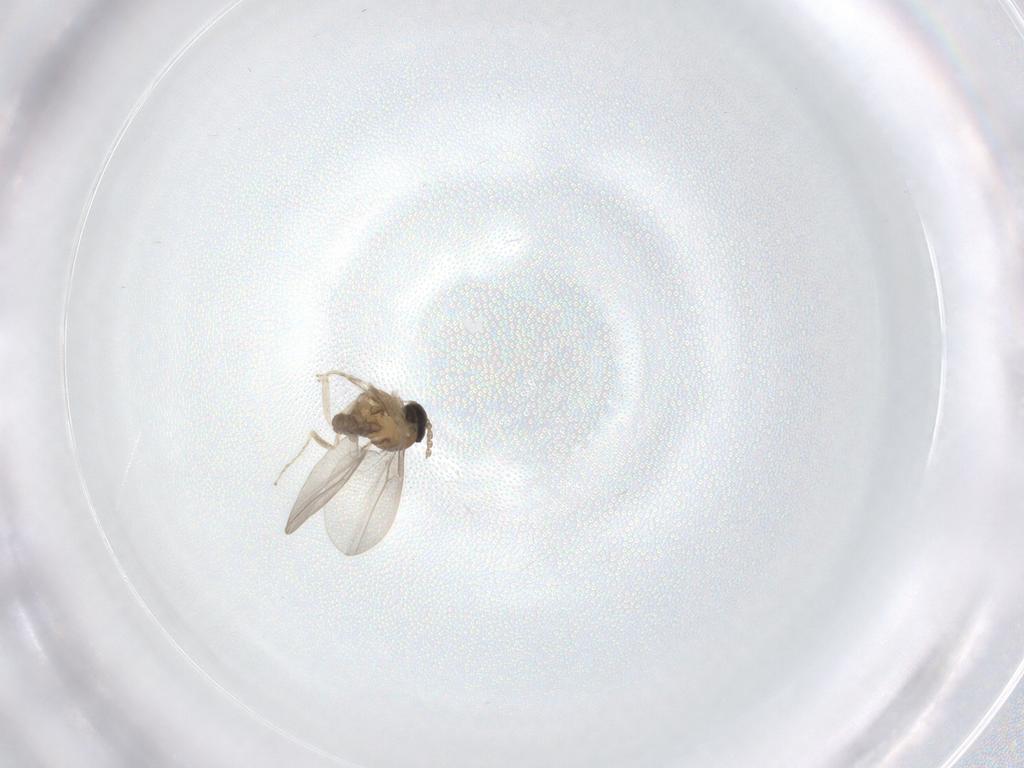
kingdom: Animalia
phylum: Arthropoda
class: Insecta
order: Diptera
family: Cecidomyiidae
